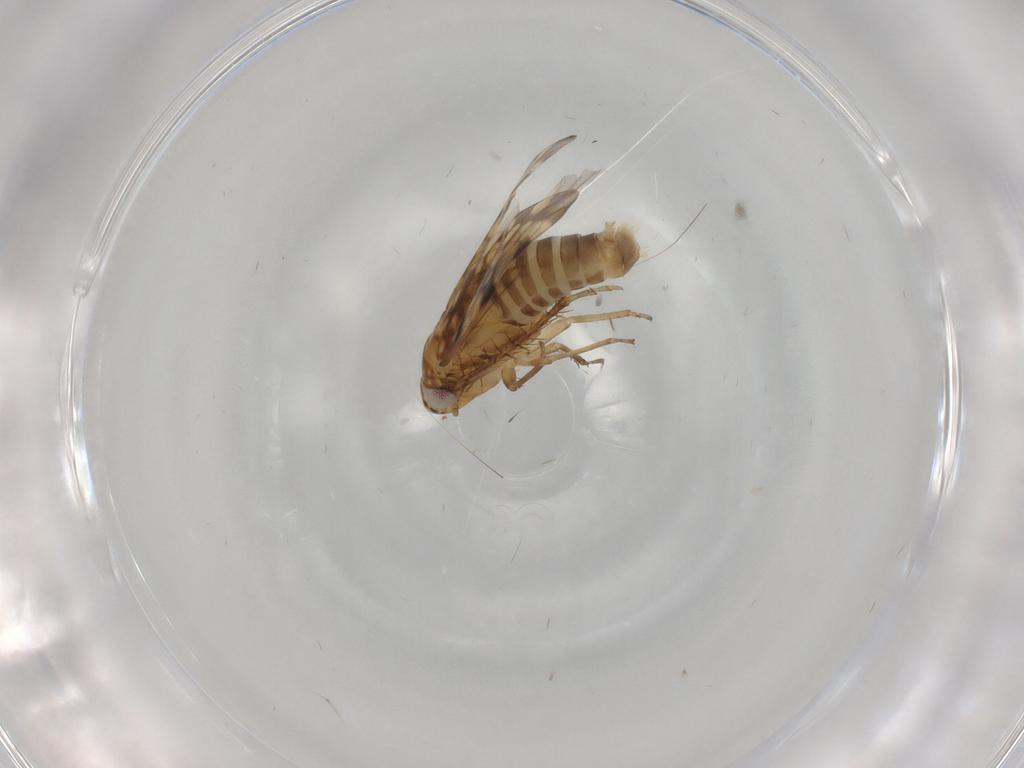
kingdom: Animalia
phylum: Arthropoda
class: Insecta
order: Hemiptera
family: Cicadellidae
